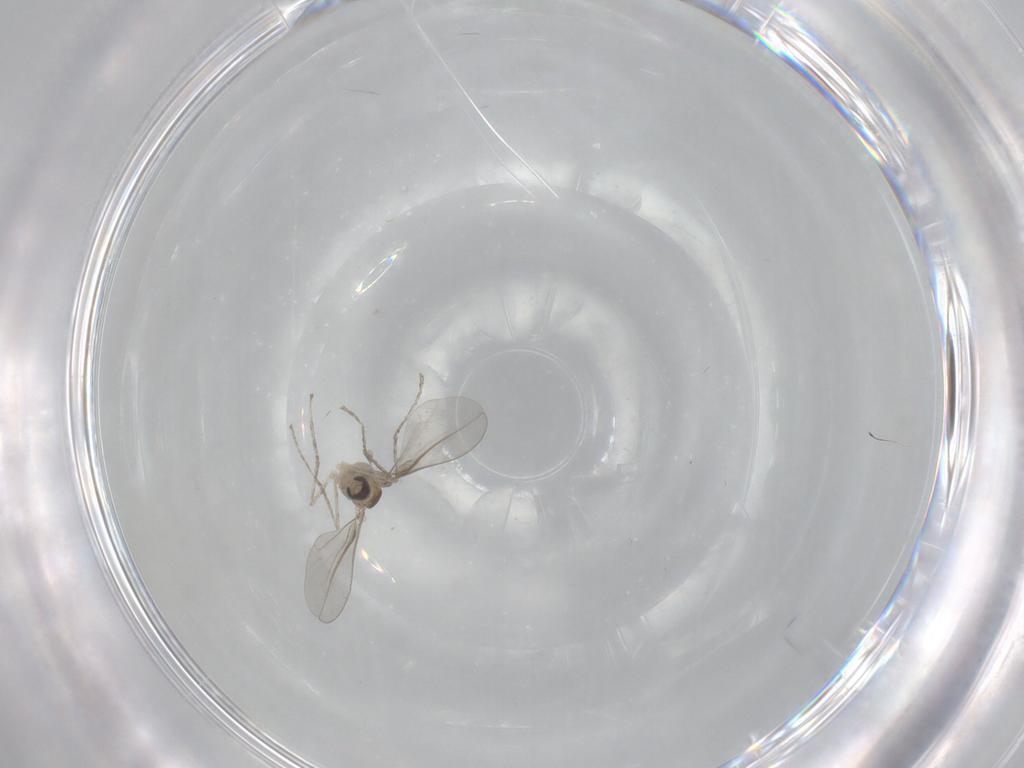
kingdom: Animalia
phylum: Arthropoda
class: Insecta
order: Diptera
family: Cecidomyiidae
